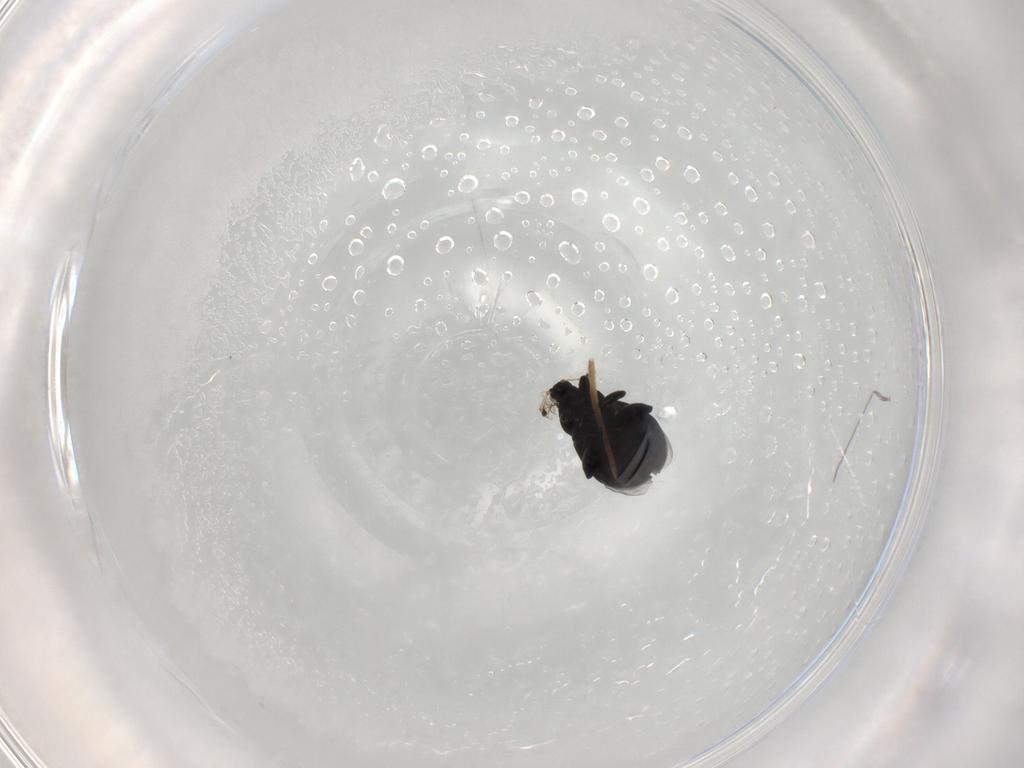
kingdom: Animalia
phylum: Arthropoda
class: Insecta
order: Coleoptera
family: Curculionidae
